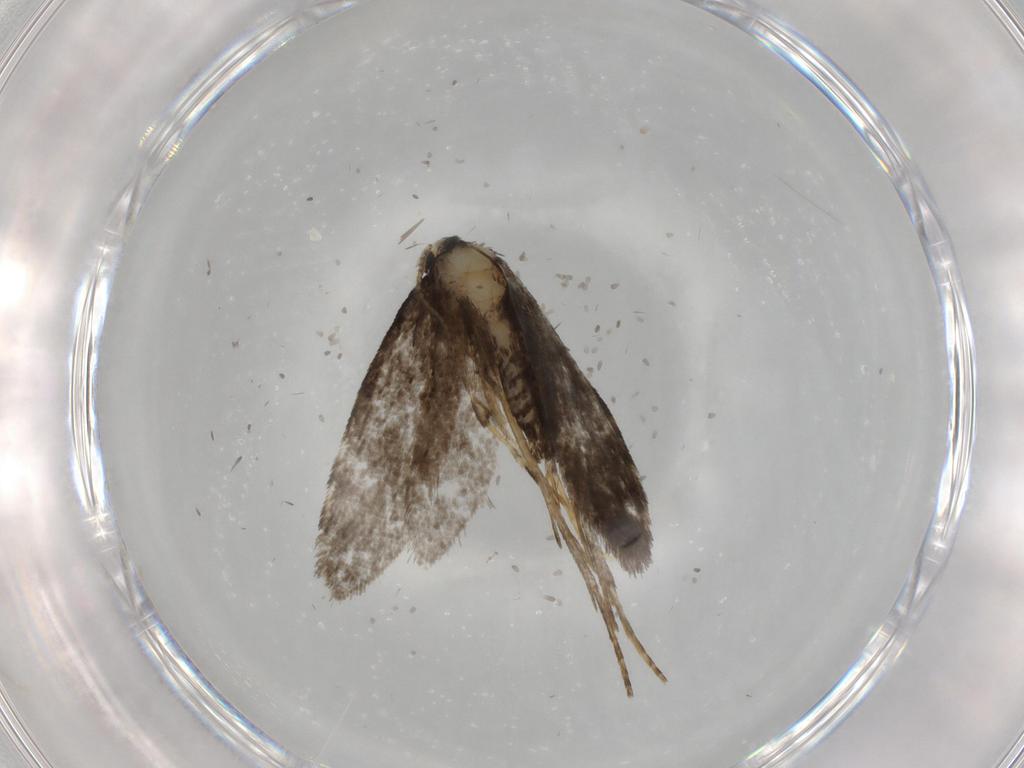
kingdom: Animalia
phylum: Arthropoda
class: Insecta
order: Lepidoptera
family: Psychidae
